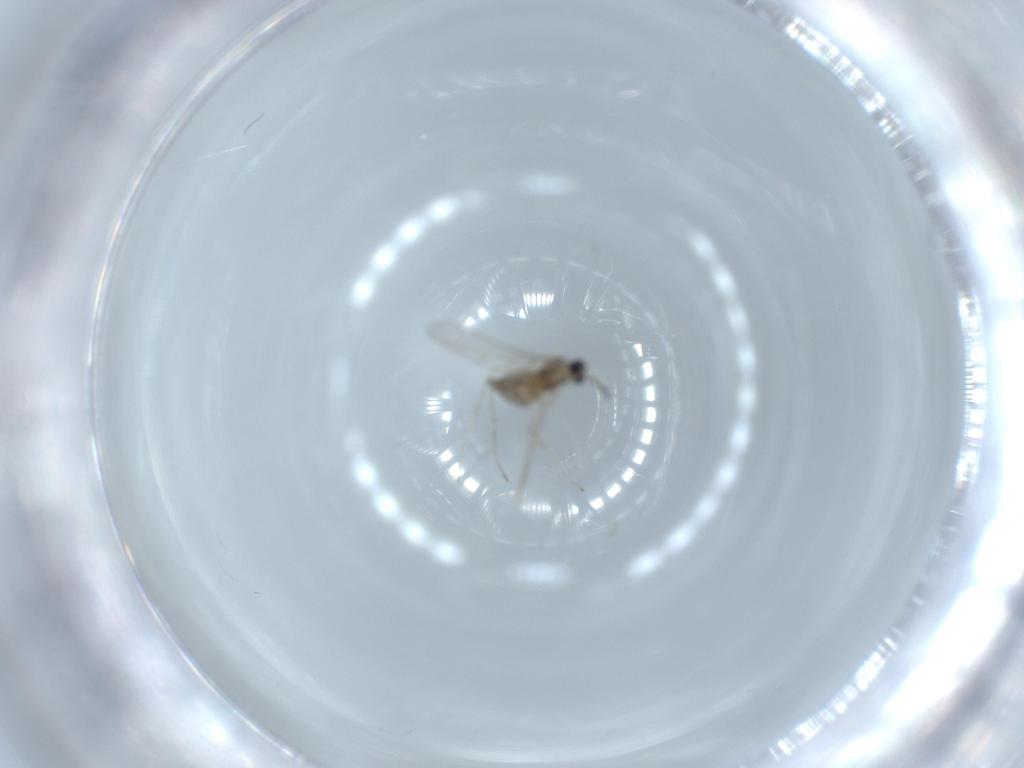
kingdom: Animalia
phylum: Arthropoda
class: Insecta
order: Diptera
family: Cecidomyiidae
